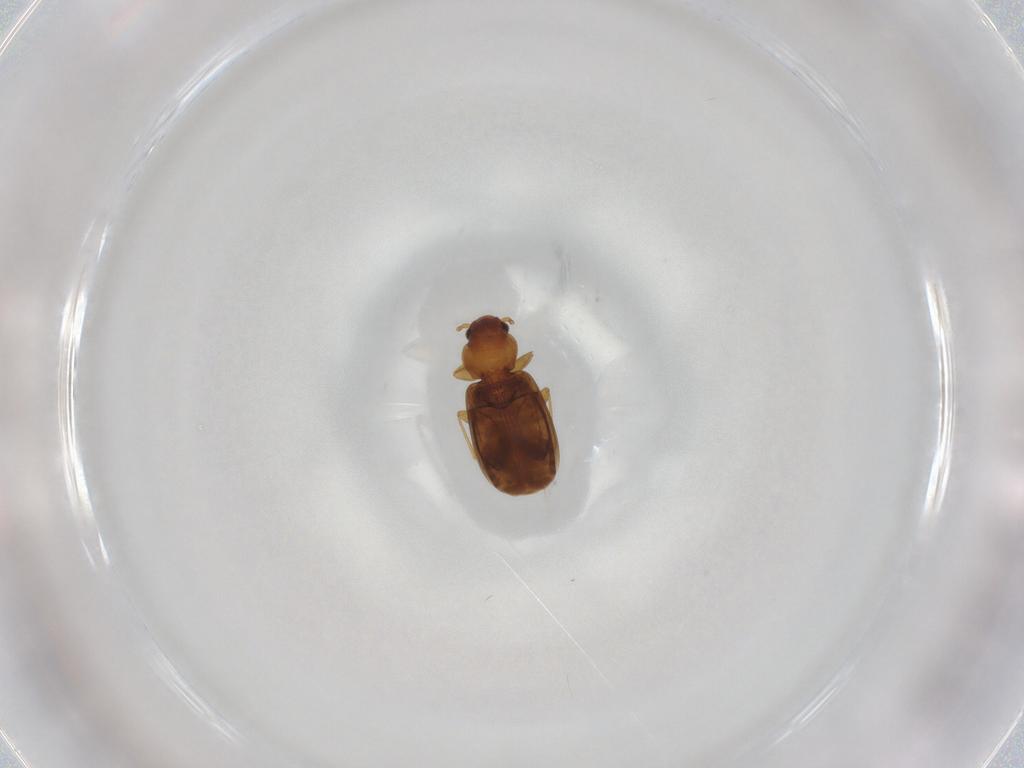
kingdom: Animalia
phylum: Arthropoda
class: Insecta
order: Coleoptera
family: Carabidae
